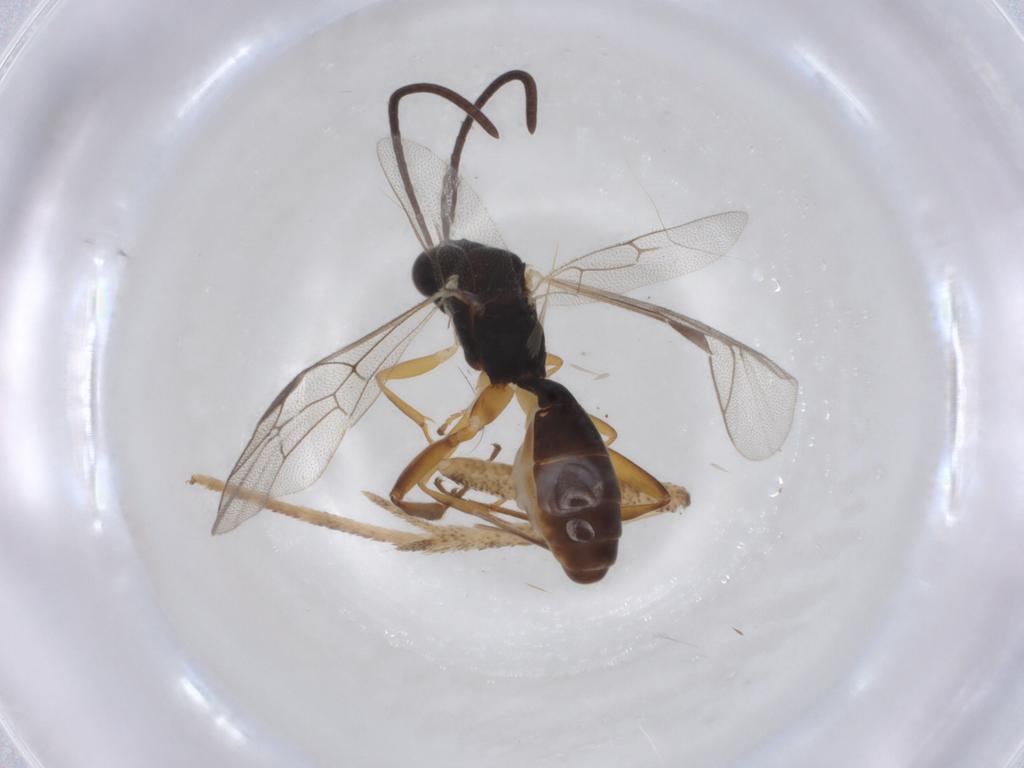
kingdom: Animalia
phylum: Arthropoda
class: Insecta
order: Hymenoptera
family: Ichneumonidae
